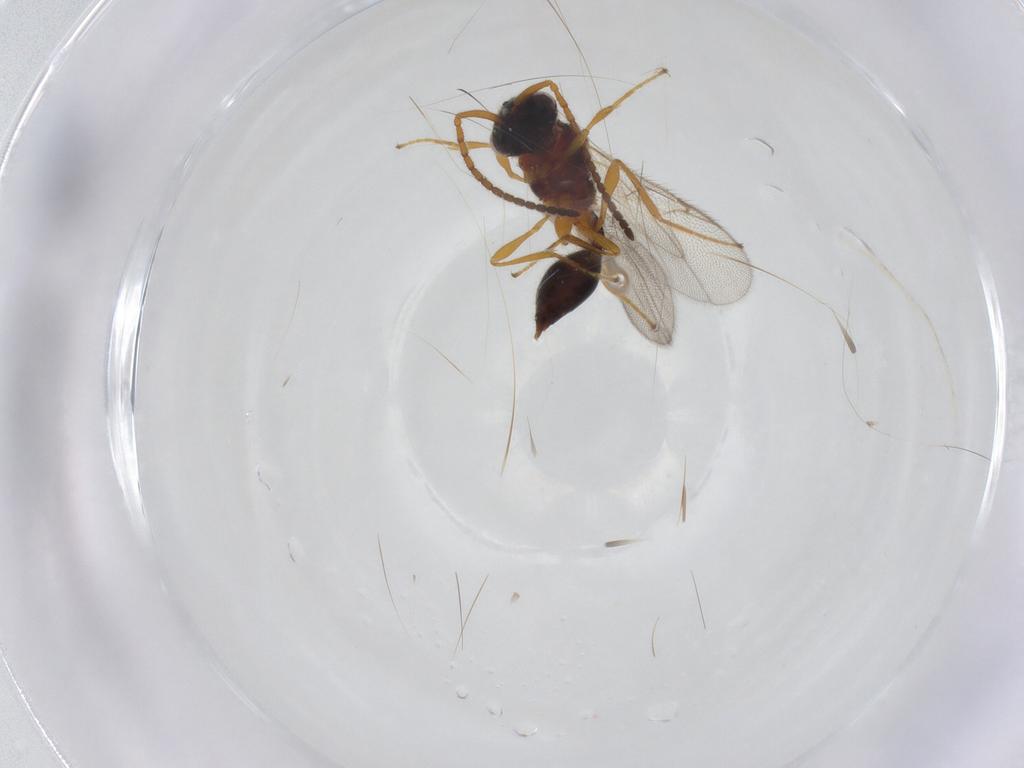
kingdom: Animalia
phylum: Arthropoda
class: Insecta
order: Hymenoptera
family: Diapriidae
